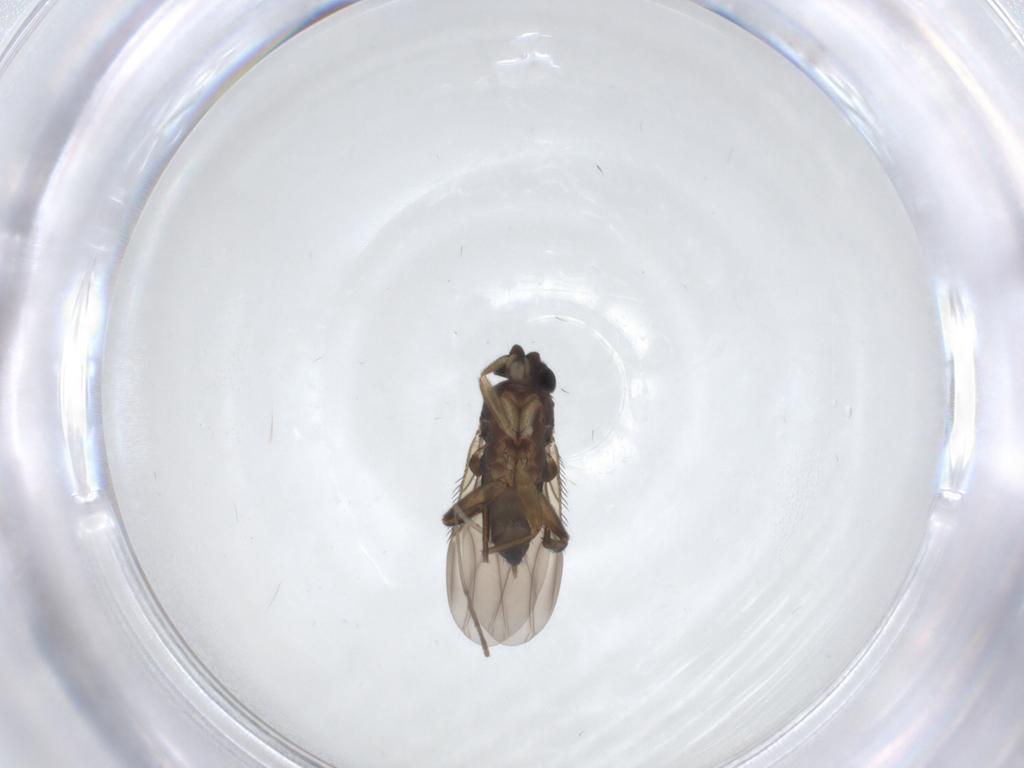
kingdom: Animalia
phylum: Arthropoda
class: Insecta
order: Diptera
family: Phoridae
